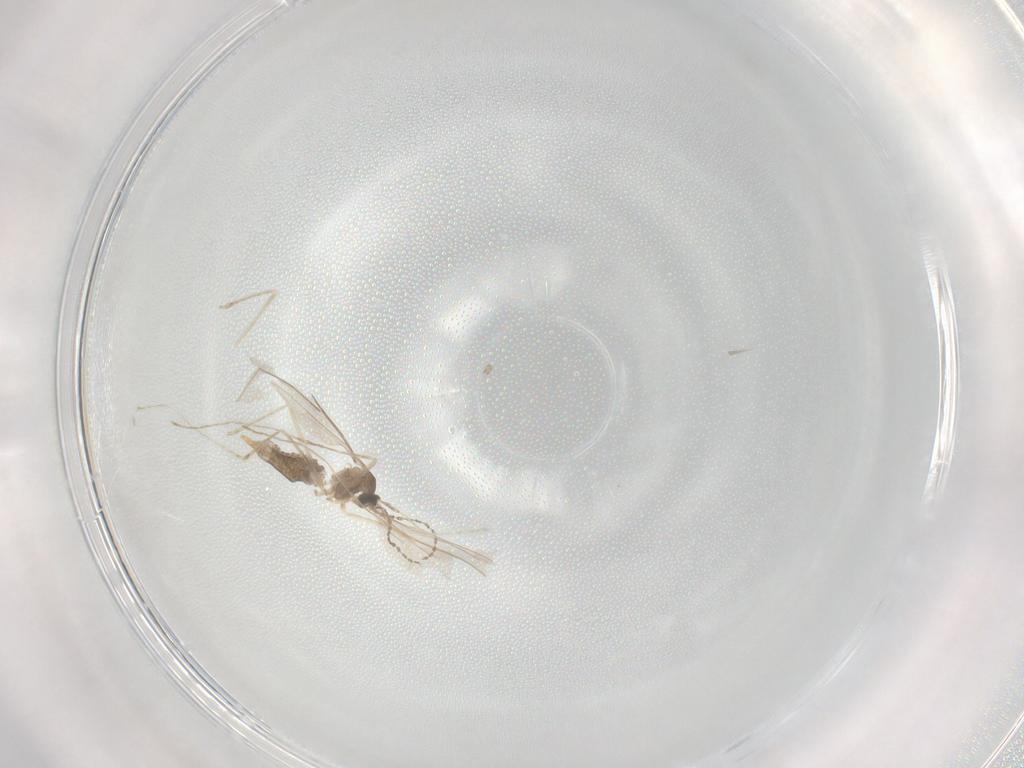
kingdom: Animalia
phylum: Arthropoda
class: Insecta
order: Diptera
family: Cecidomyiidae
